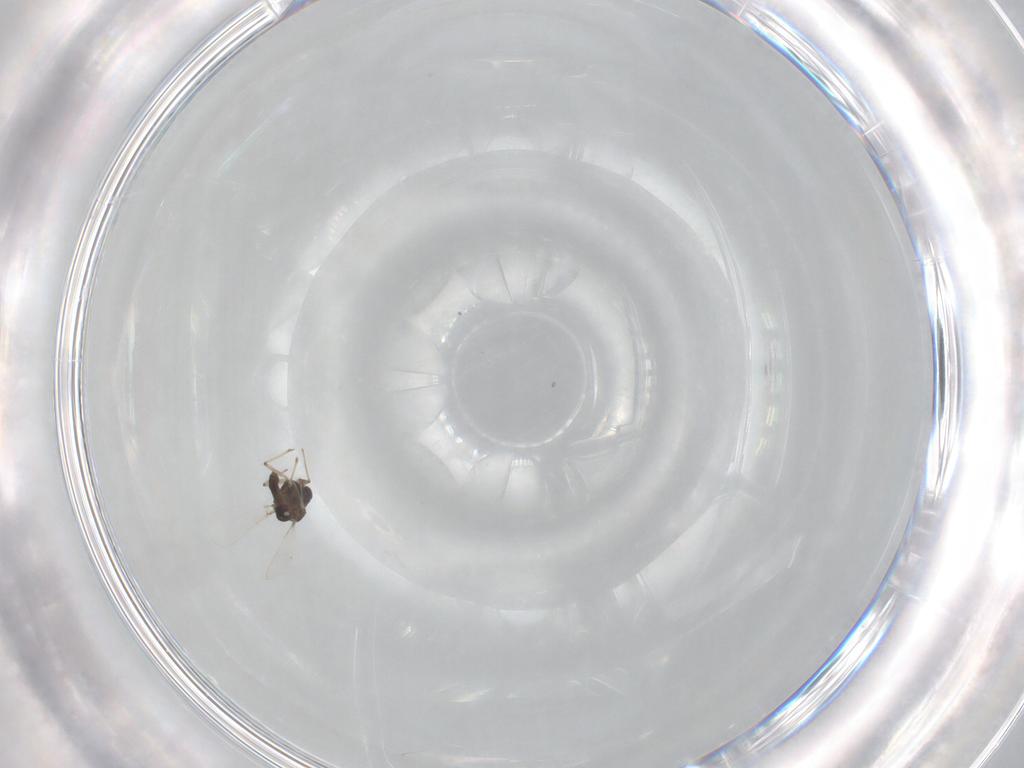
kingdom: Animalia
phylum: Arthropoda
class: Insecta
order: Diptera
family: Chironomidae
